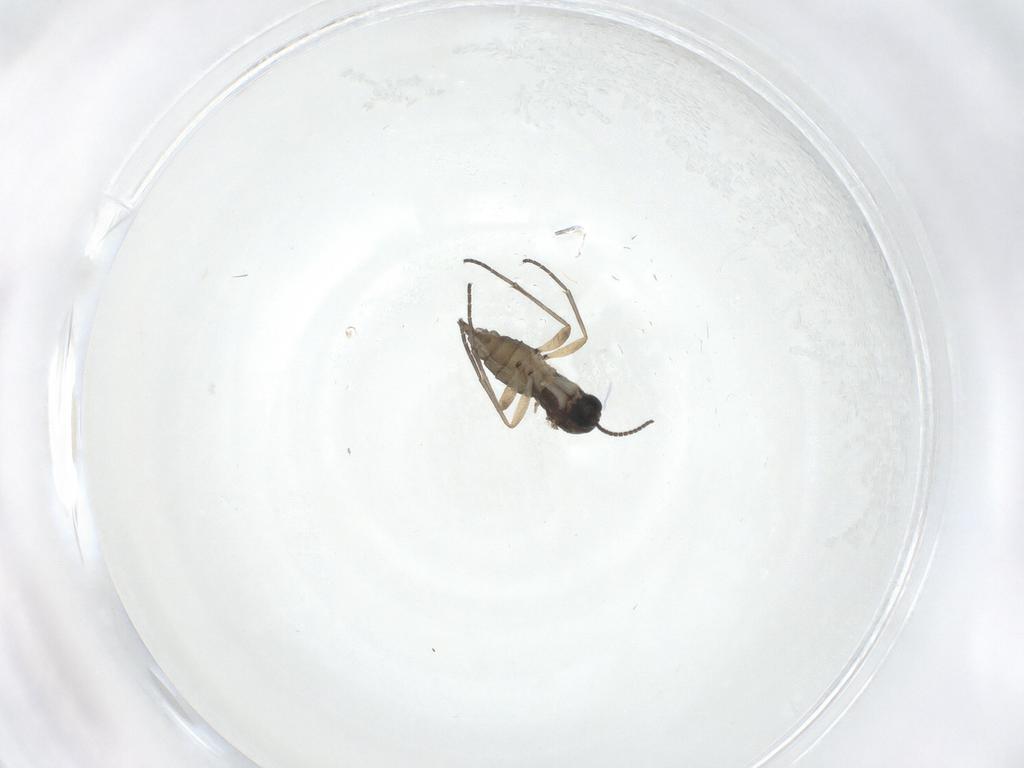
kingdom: Animalia
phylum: Arthropoda
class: Insecta
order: Diptera
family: Sciaridae
